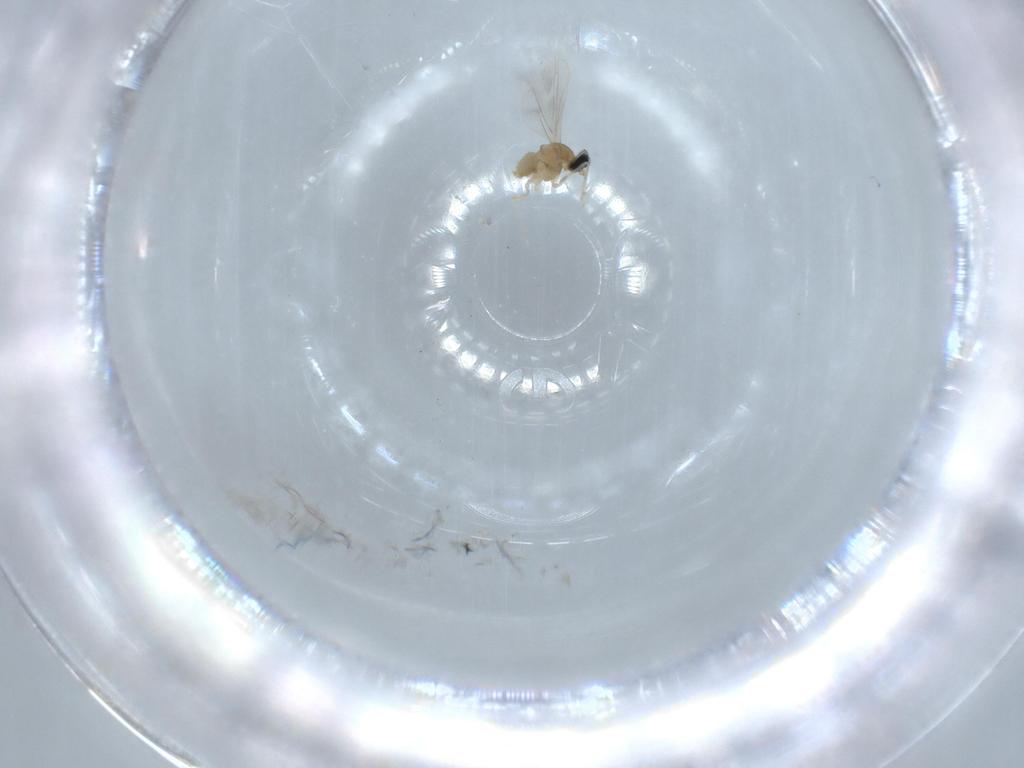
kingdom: Animalia
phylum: Arthropoda
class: Insecta
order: Diptera
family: Cecidomyiidae
